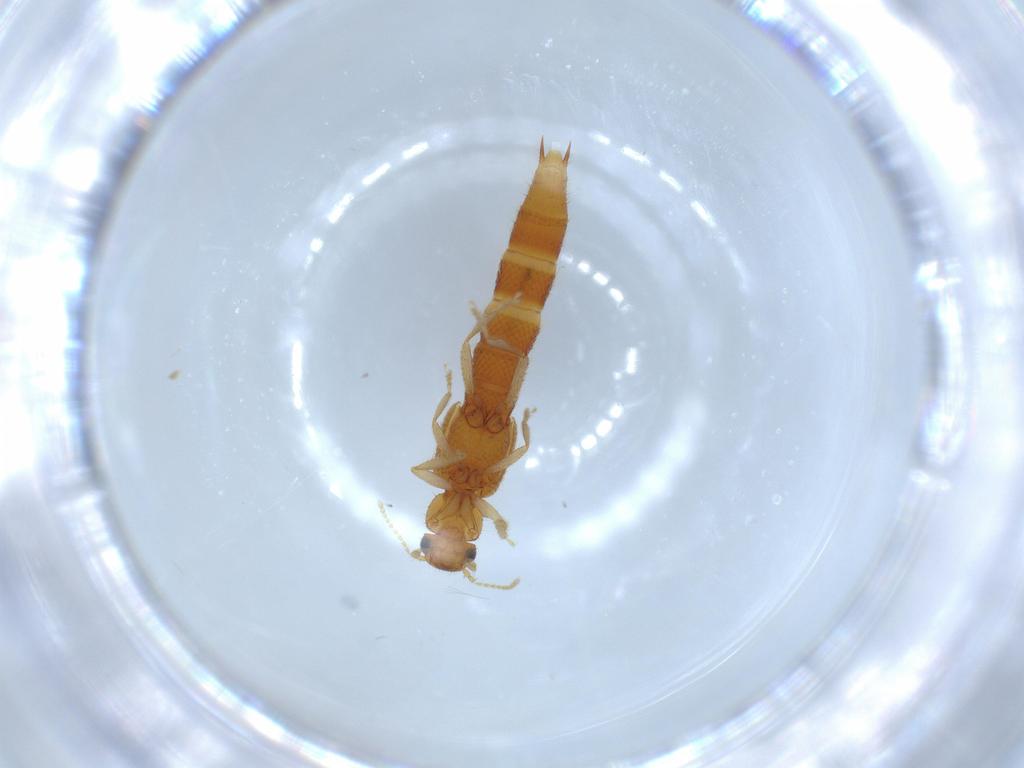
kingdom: Animalia
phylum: Arthropoda
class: Insecta
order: Coleoptera
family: Staphylinidae
